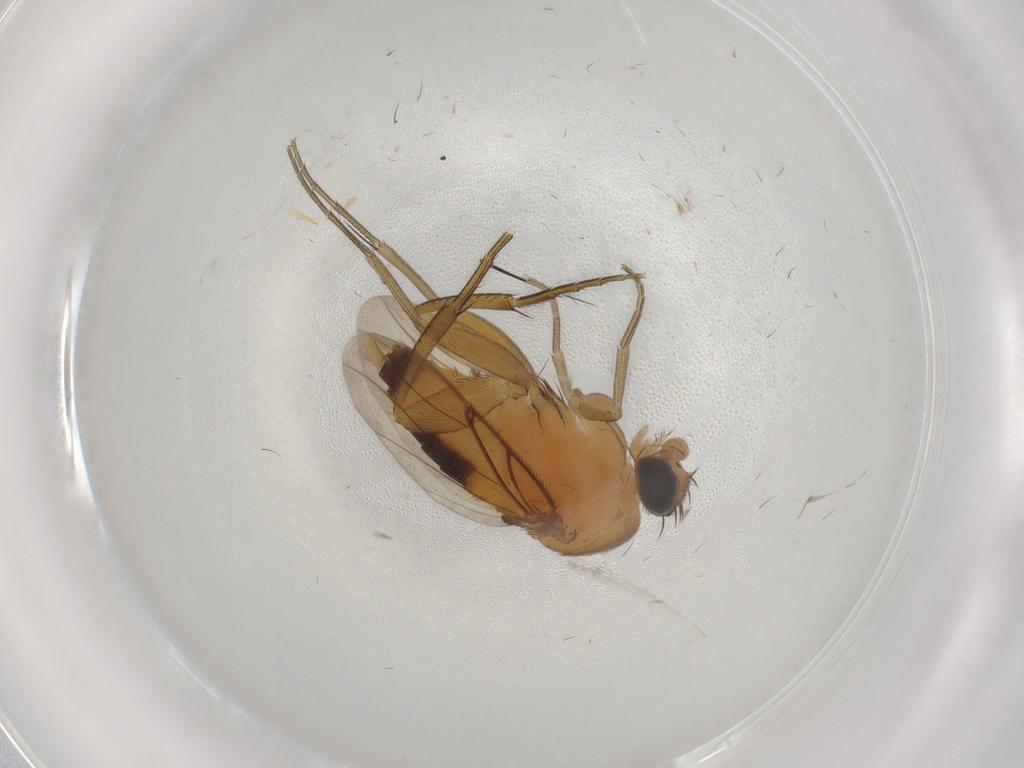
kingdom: Animalia
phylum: Arthropoda
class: Insecta
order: Diptera
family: Phoridae
